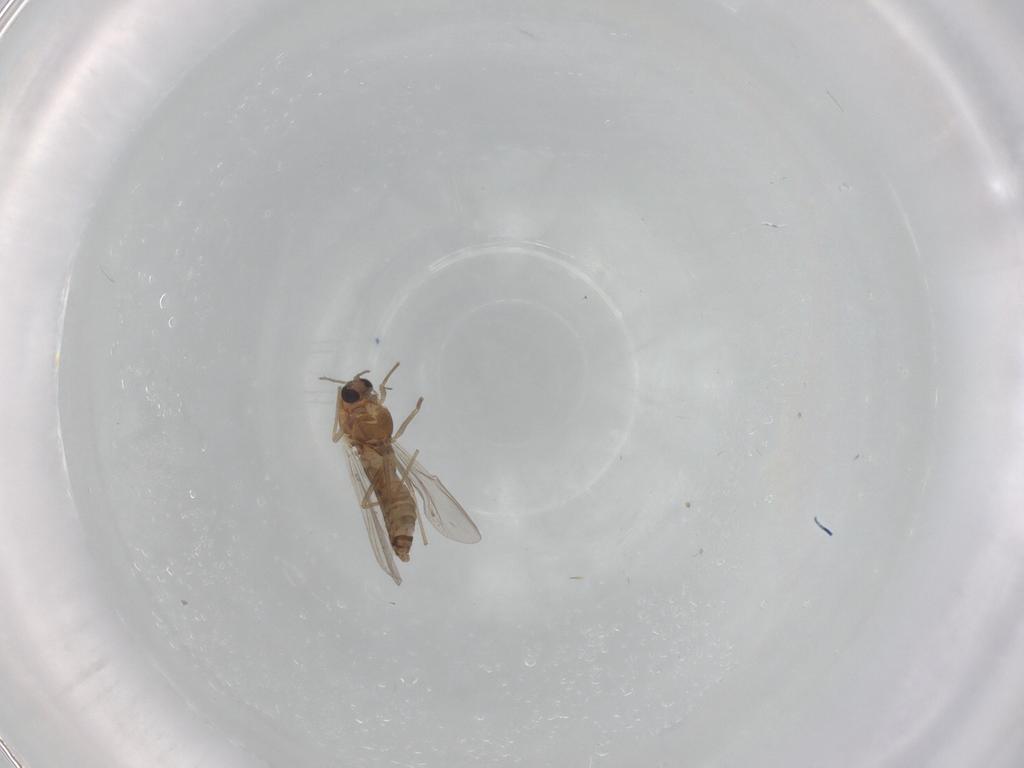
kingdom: Animalia
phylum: Arthropoda
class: Insecta
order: Diptera
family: Chironomidae
